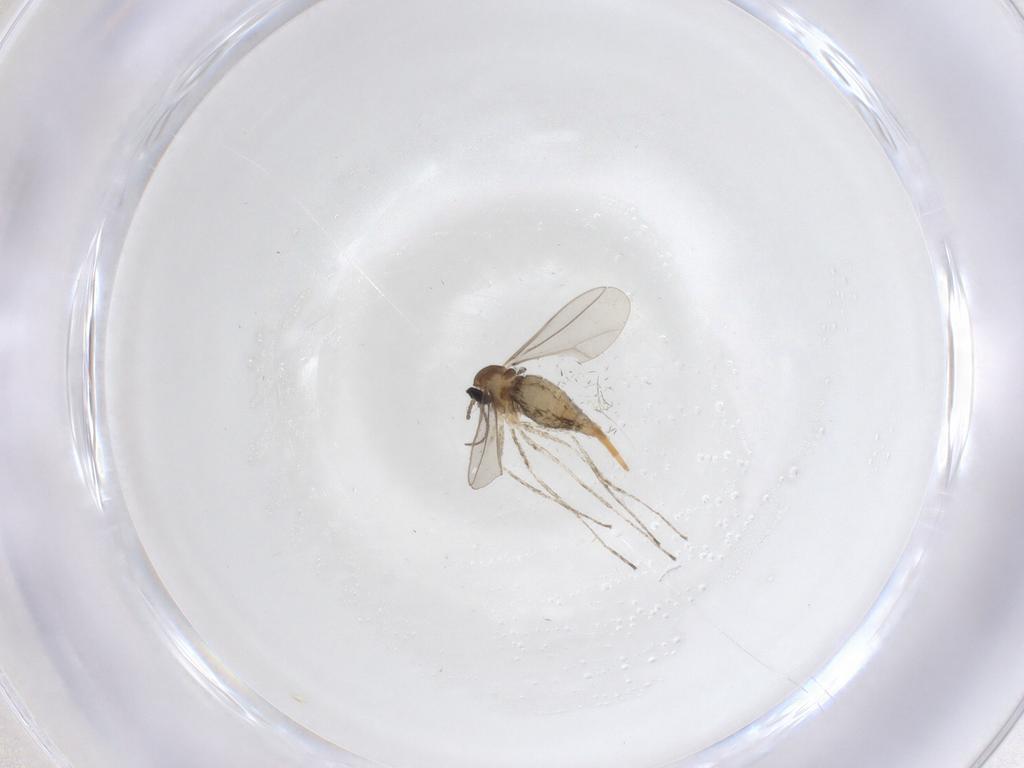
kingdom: Animalia
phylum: Arthropoda
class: Insecta
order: Diptera
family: Cecidomyiidae
